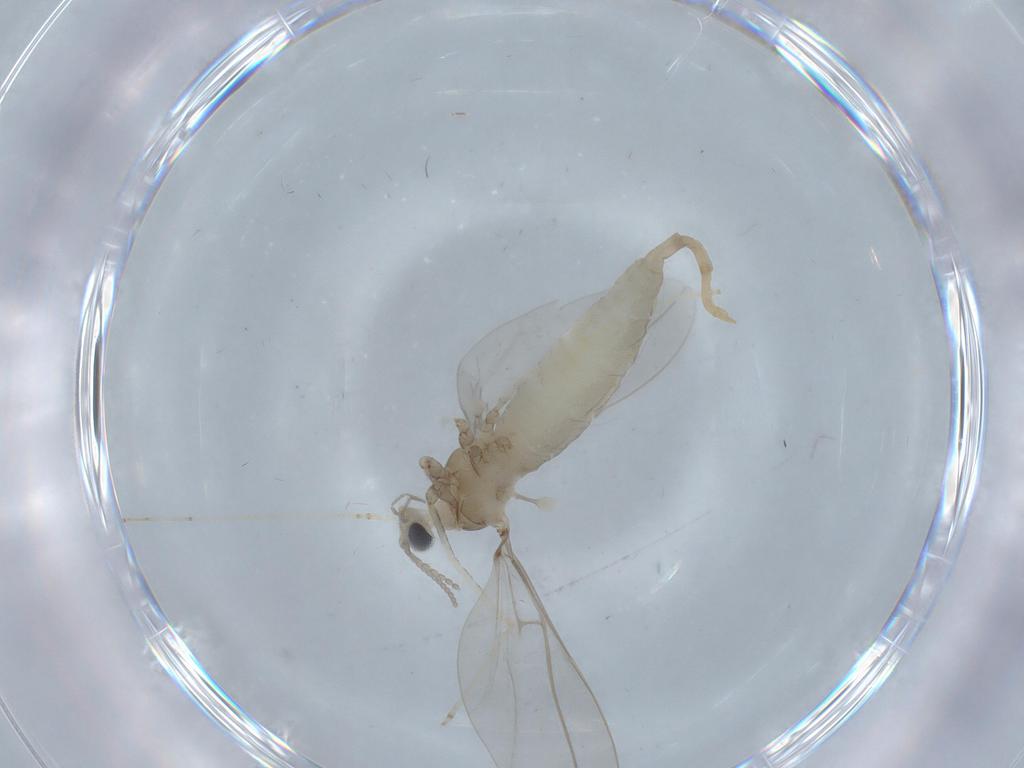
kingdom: Animalia
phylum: Arthropoda
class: Insecta
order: Diptera
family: Cecidomyiidae
